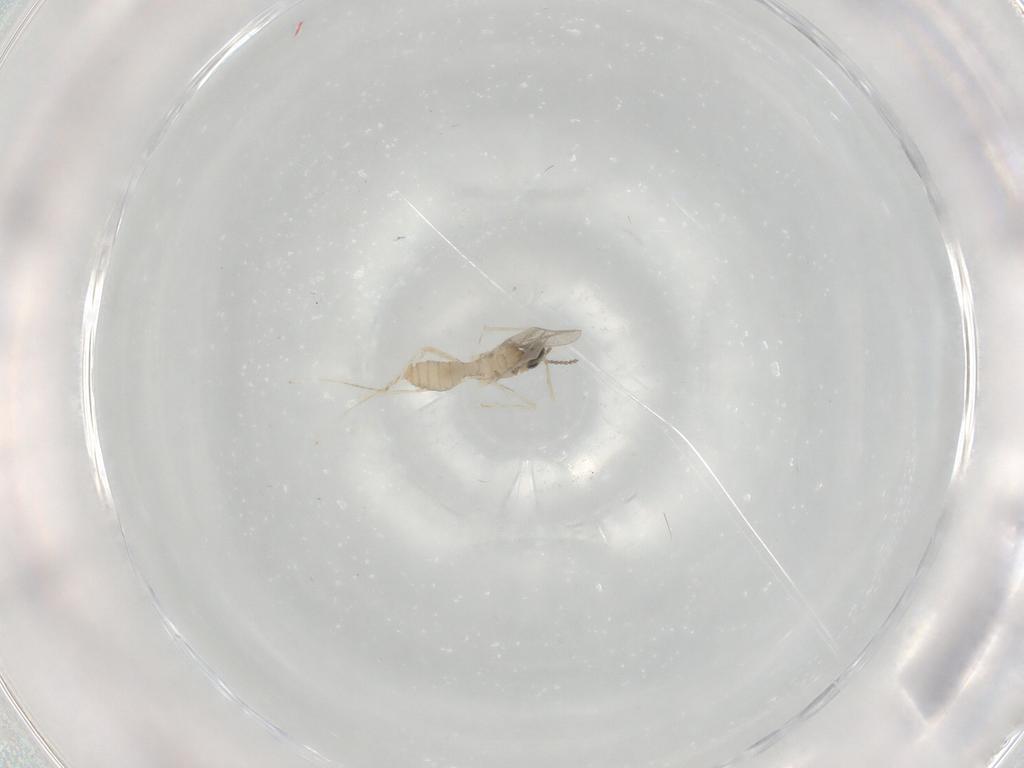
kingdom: Animalia
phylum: Arthropoda
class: Insecta
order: Diptera
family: Cecidomyiidae
